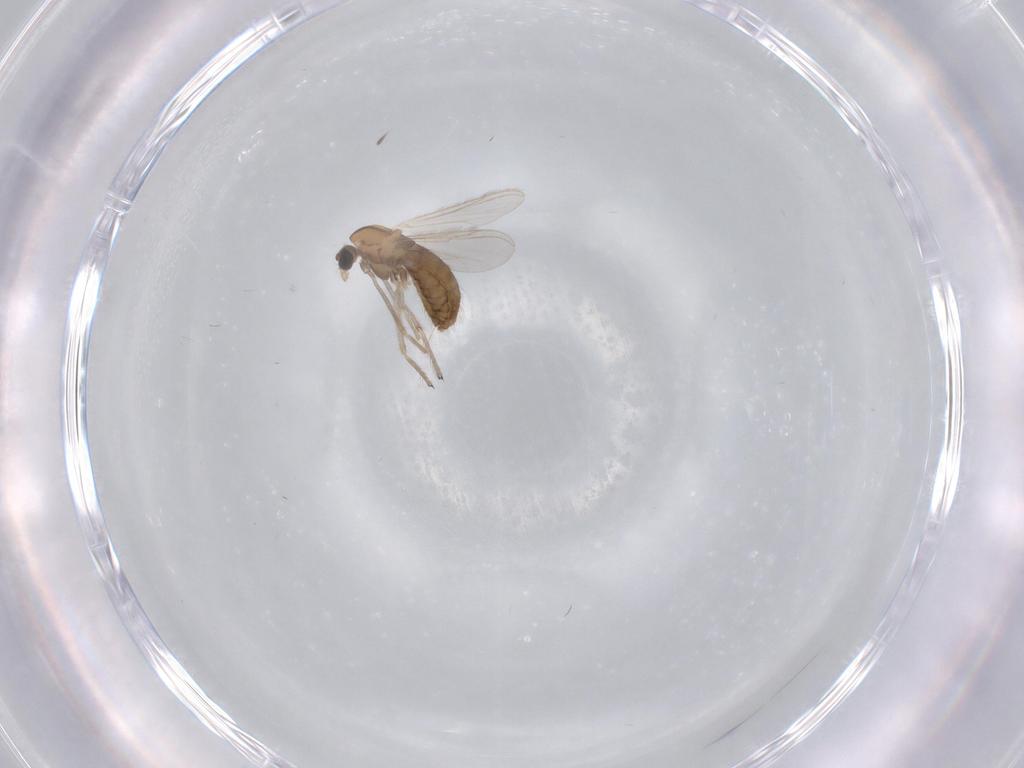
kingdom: Animalia
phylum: Arthropoda
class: Insecta
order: Diptera
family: Chironomidae
